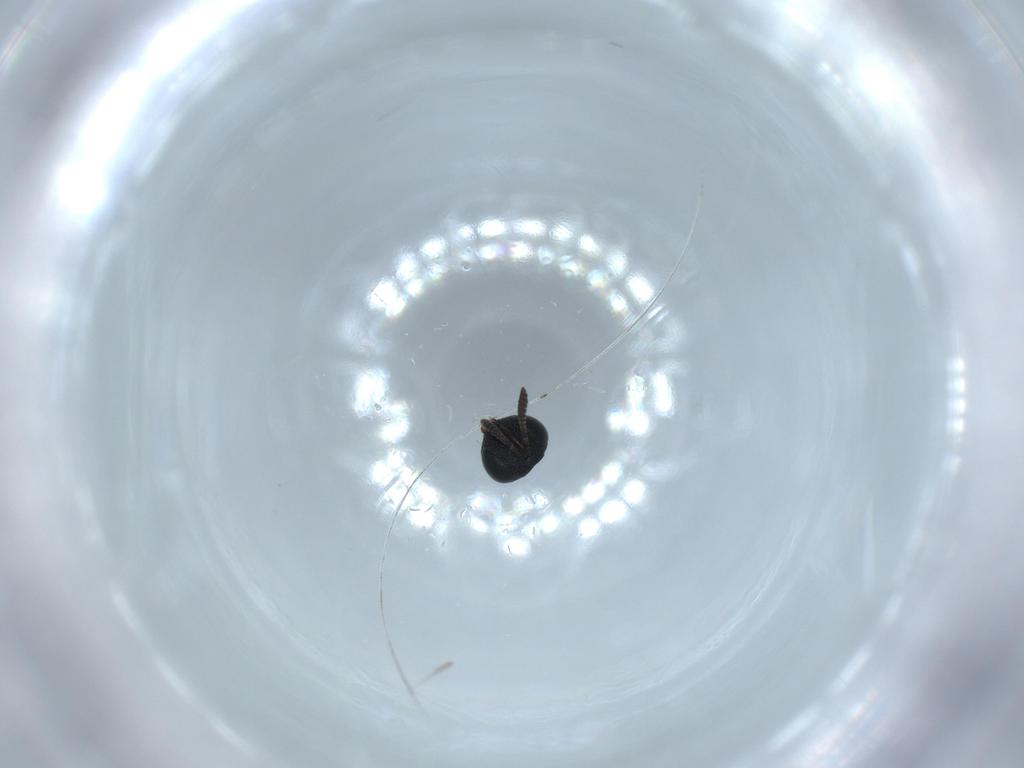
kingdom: Animalia
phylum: Arthropoda
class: Insecta
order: Hymenoptera
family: Scelionidae
